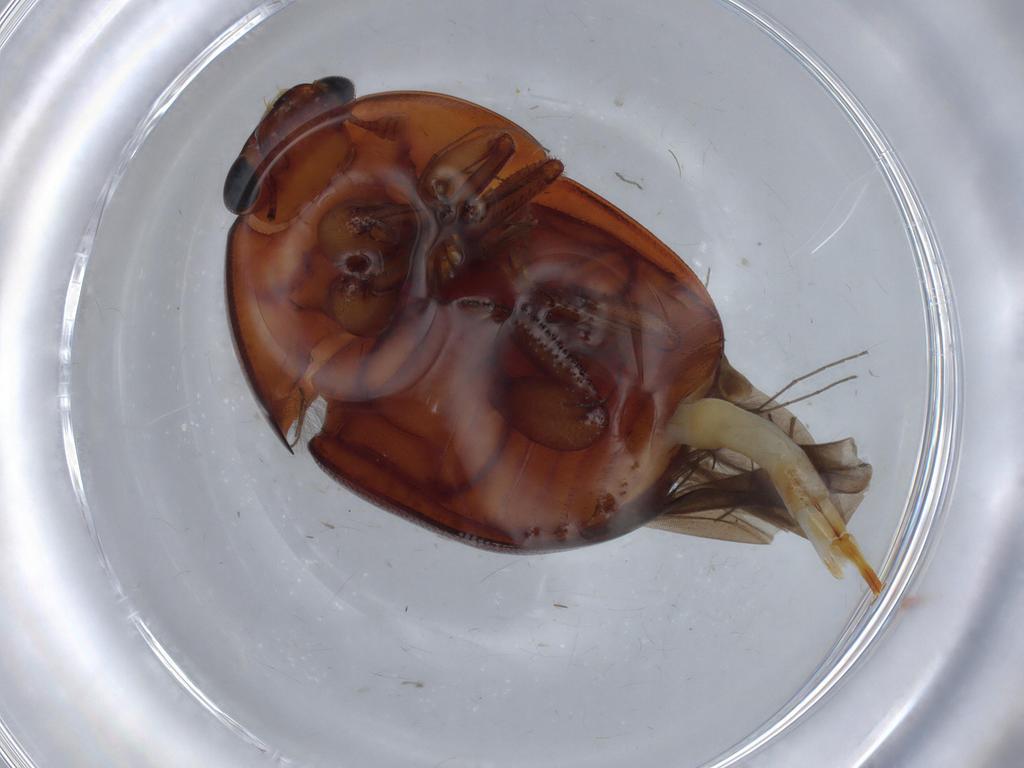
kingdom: Animalia
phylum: Arthropoda
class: Insecta
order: Coleoptera
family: Nitidulidae
